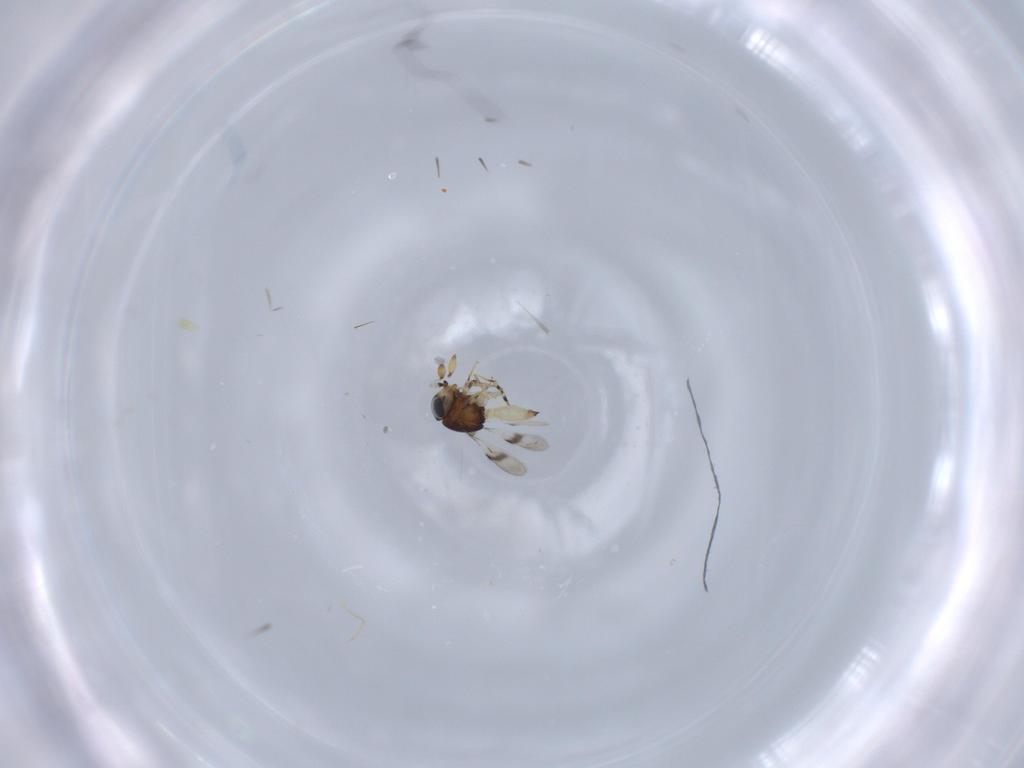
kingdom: Animalia
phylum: Arthropoda
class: Insecta
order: Hymenoptera
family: Scelionidae
